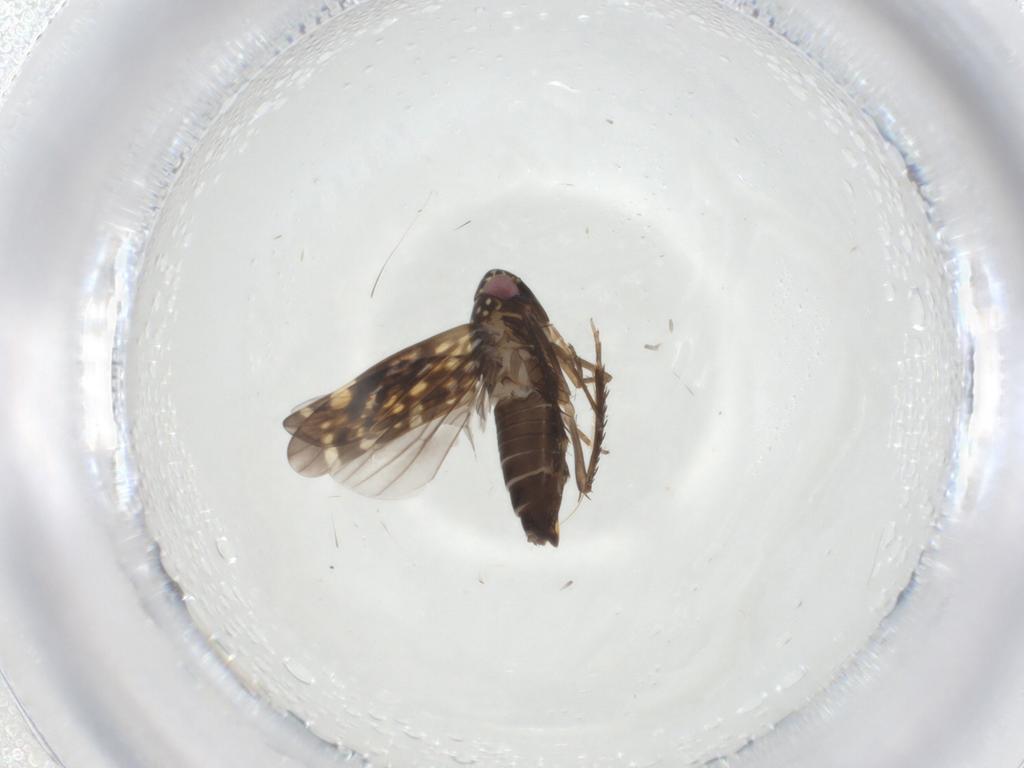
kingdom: Animalia
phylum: Arthropoda
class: Insecta
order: Hemiptera
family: Cicadellidae
